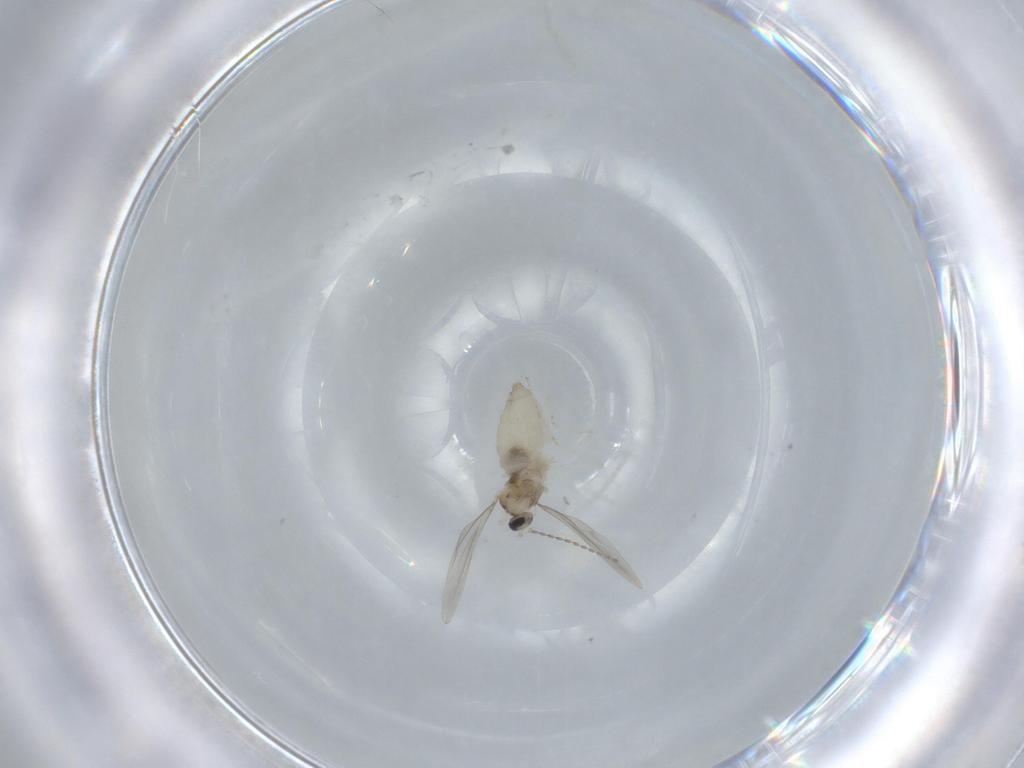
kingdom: Animalia
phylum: Arthropoda
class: Insecta
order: Diptera
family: Cecidomyiidae
